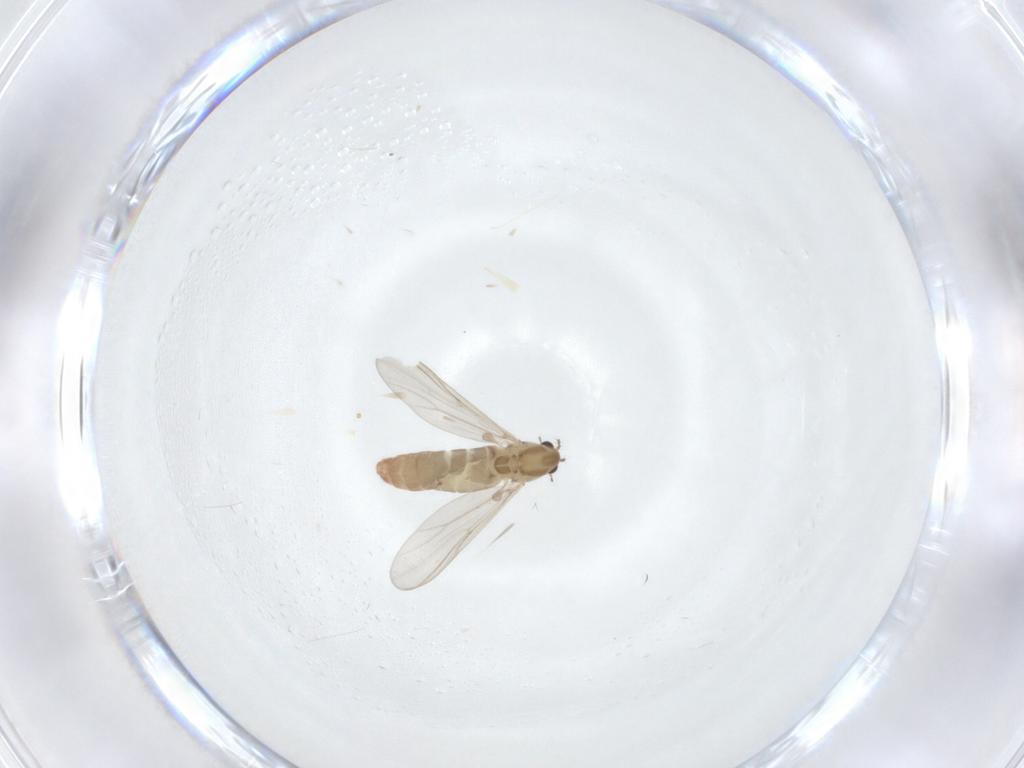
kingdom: Animalia
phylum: Arthropoda
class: Insecta
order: Diptera
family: Chironomidae
